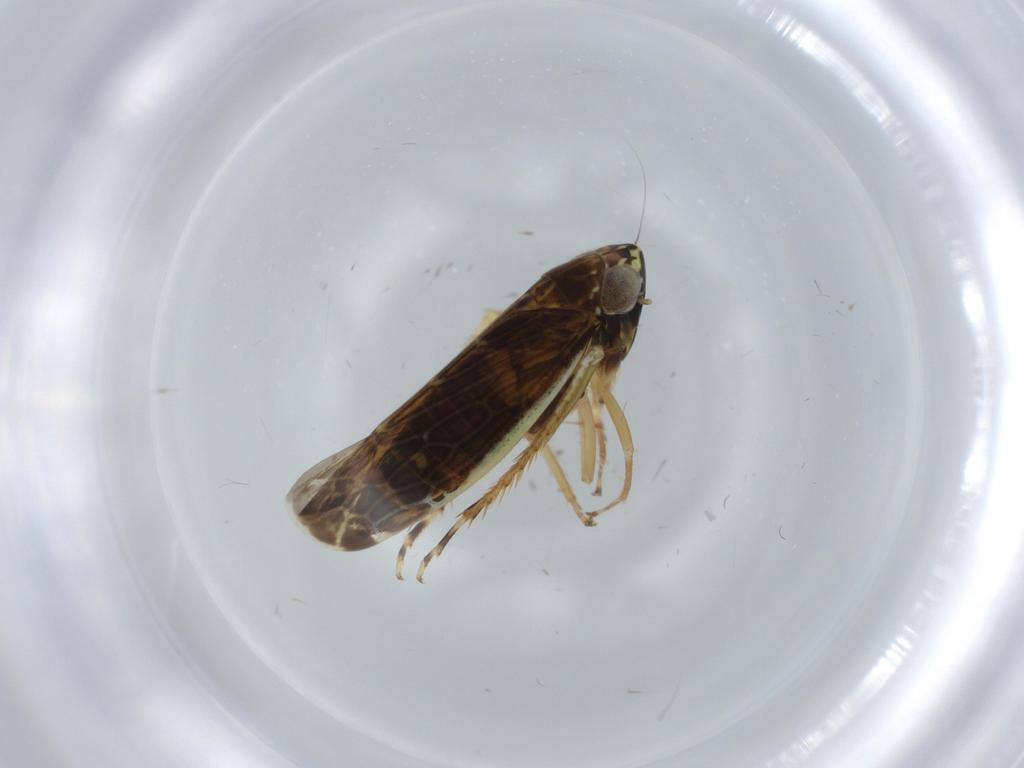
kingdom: Animalia
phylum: Arthropoda
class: Insecta
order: Hemiptera
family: Cicadellidae
